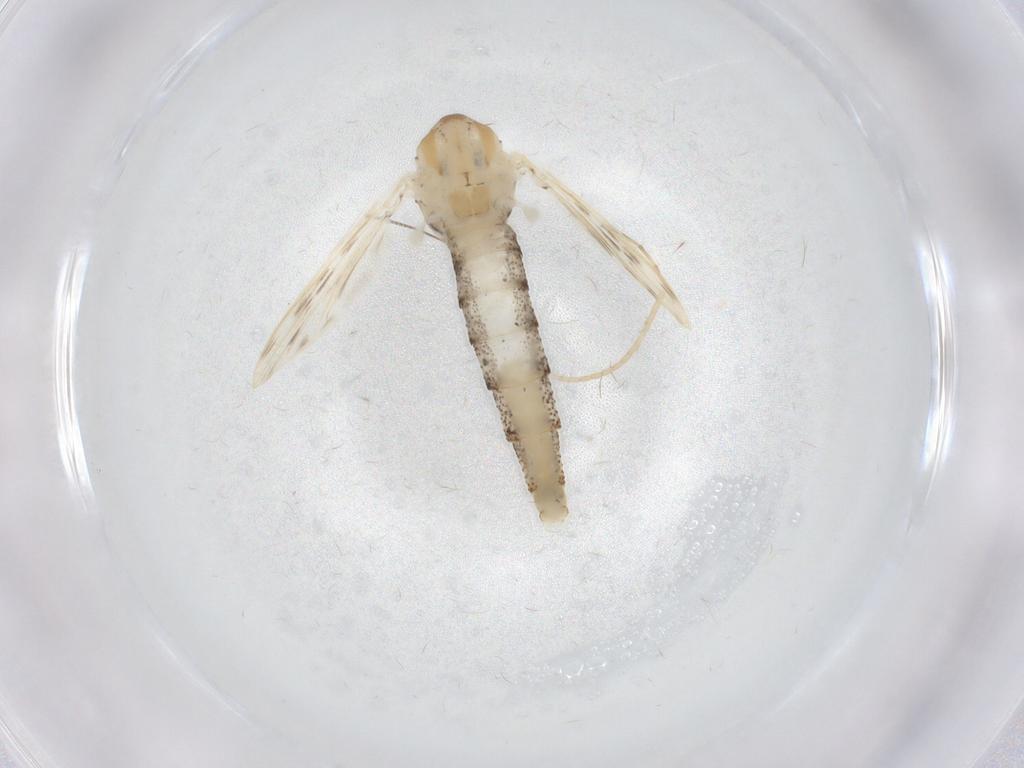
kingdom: Animalia
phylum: Arthropoda
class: Insecta
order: Diptera
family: Chaoboridae
